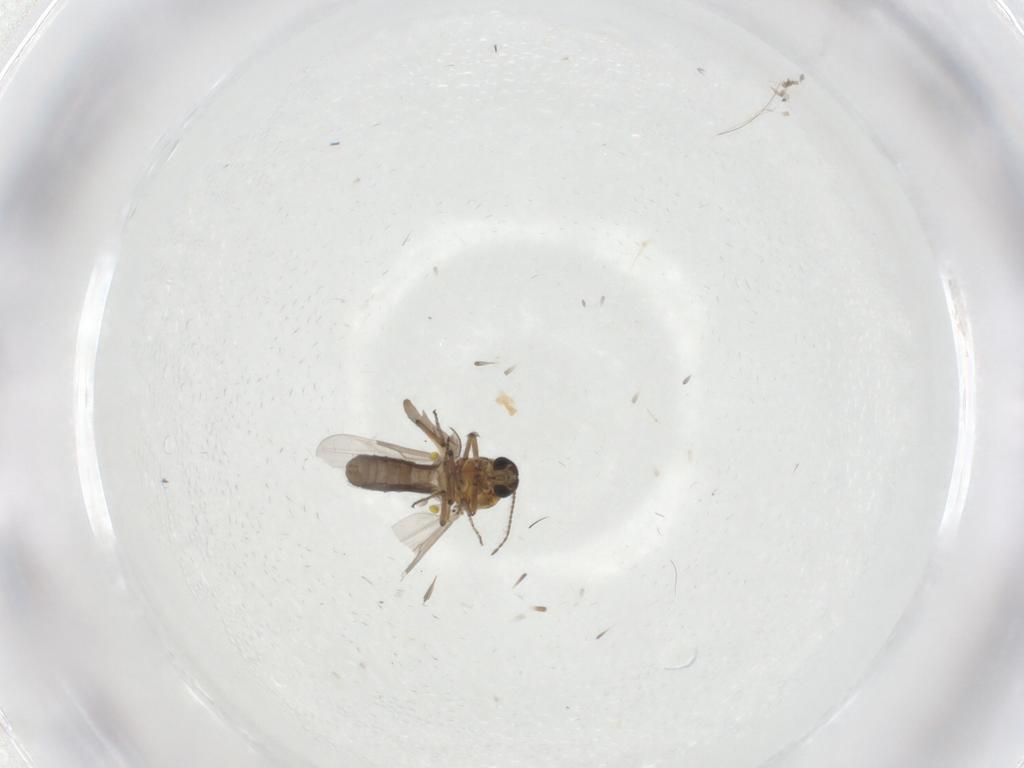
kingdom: Animalia
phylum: Arthropoda
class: Insecta
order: Diptera
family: Ceratopogonidae
